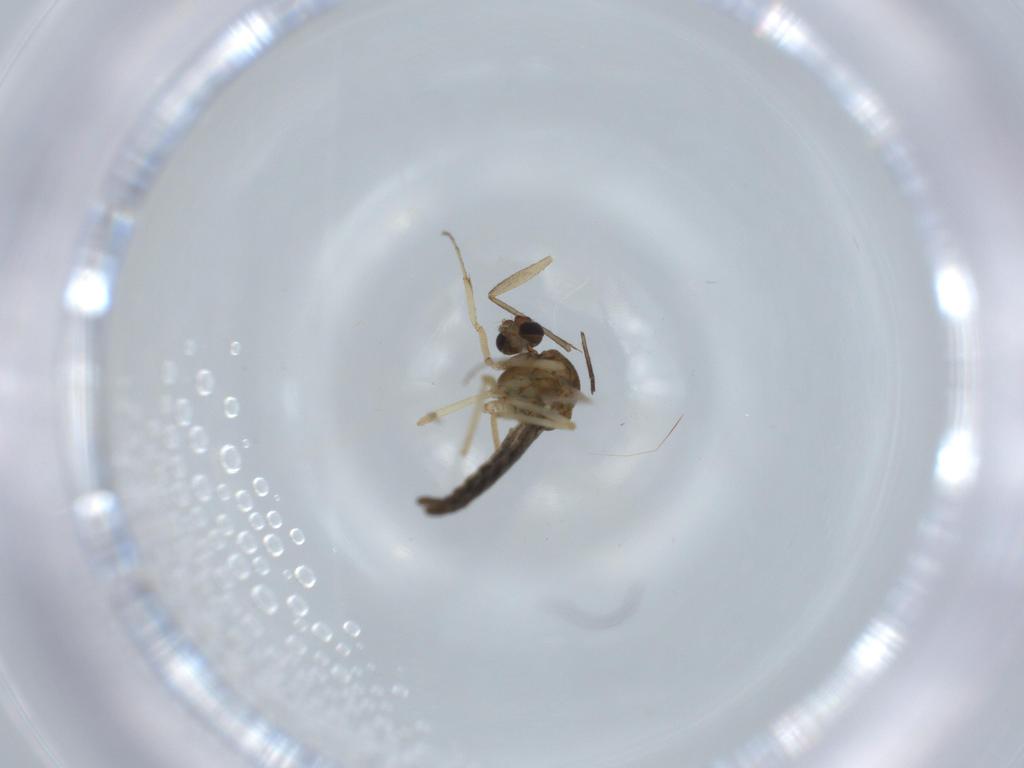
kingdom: Animalia
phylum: Arthropoda
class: Insecta
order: Diptera
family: Ceratopogonidae
